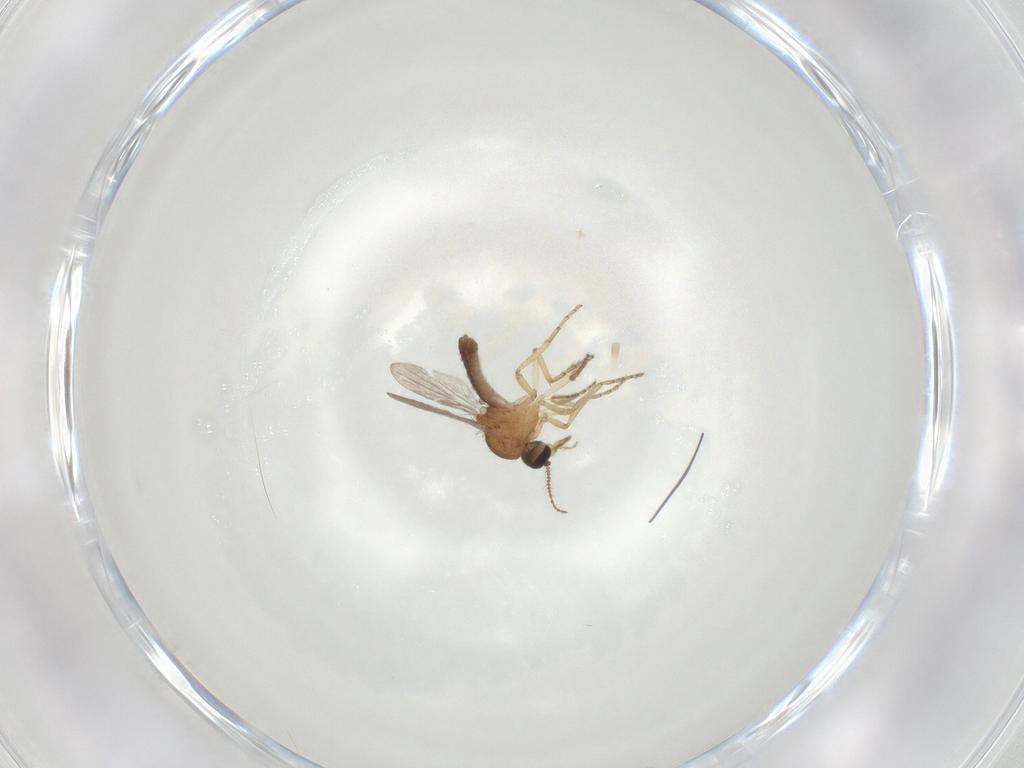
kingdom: Animalia
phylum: Arthropoda
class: Insecta
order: Diptera
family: Ceratopogonidae
